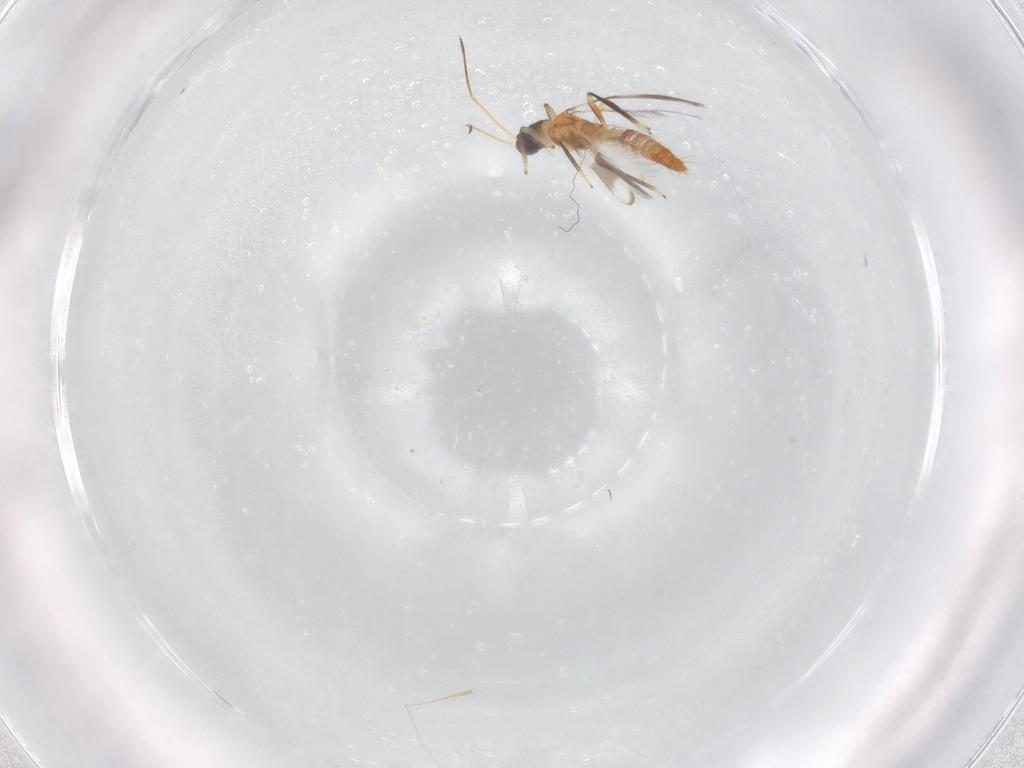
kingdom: Animalia
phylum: Arthropoda
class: Insecta
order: Thysanoptera
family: Aeolothripidae
